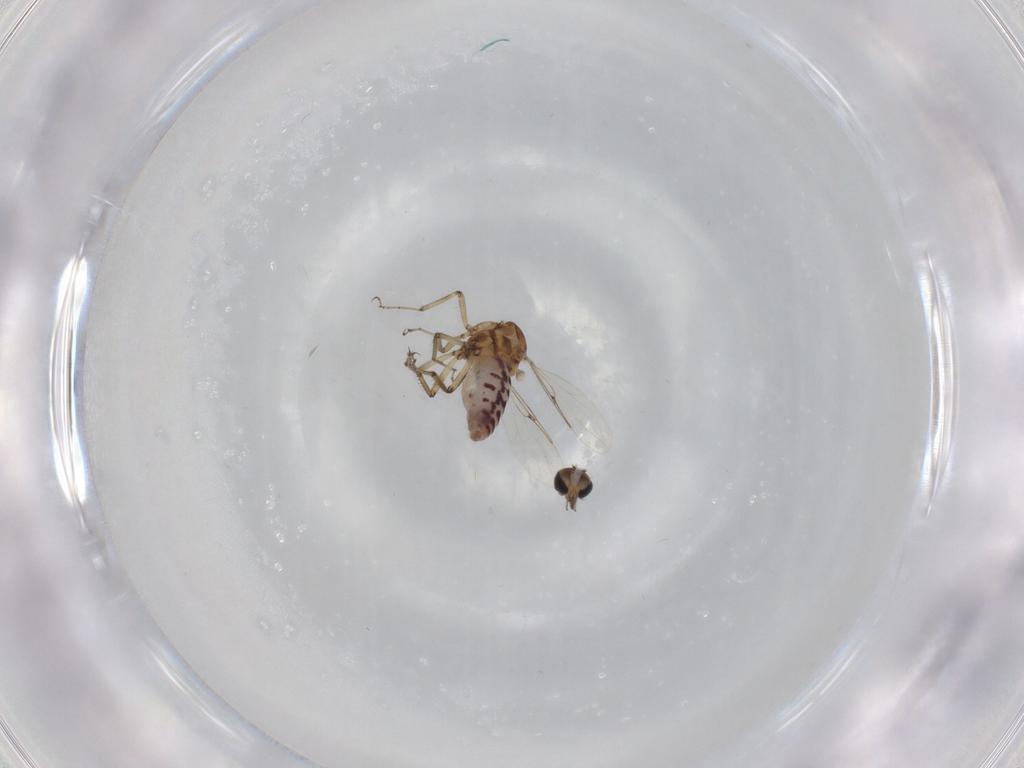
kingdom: Animalia
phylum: Arthropoda
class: Insecta
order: Diptera
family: Ceratopogonidae
